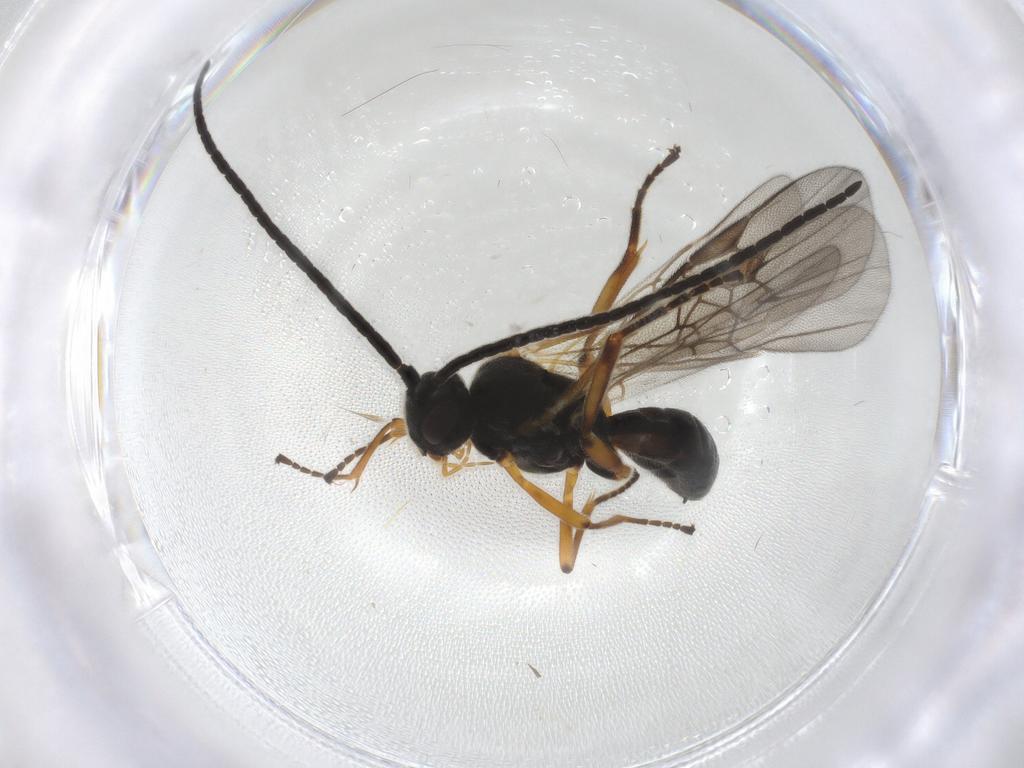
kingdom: Animalia
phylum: Arthropoda
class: Insecta
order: Hymenoptera
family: Braconidae
